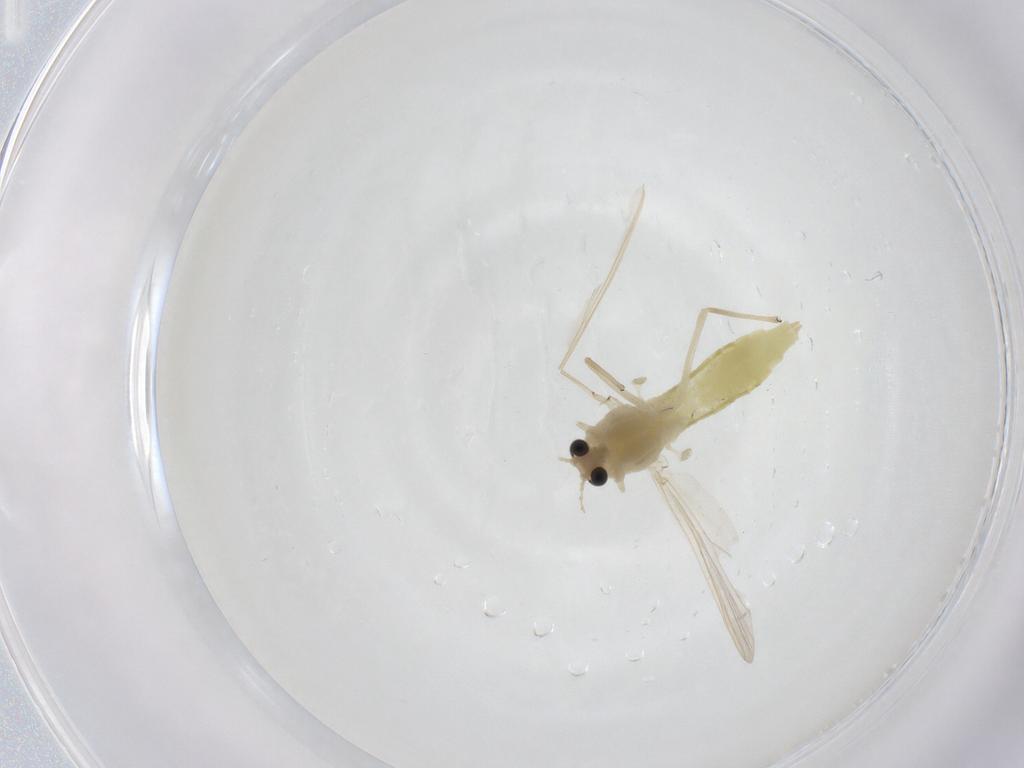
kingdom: Animalia
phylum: Arthropoda
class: Insecta
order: Diptera
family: Chironomidae
